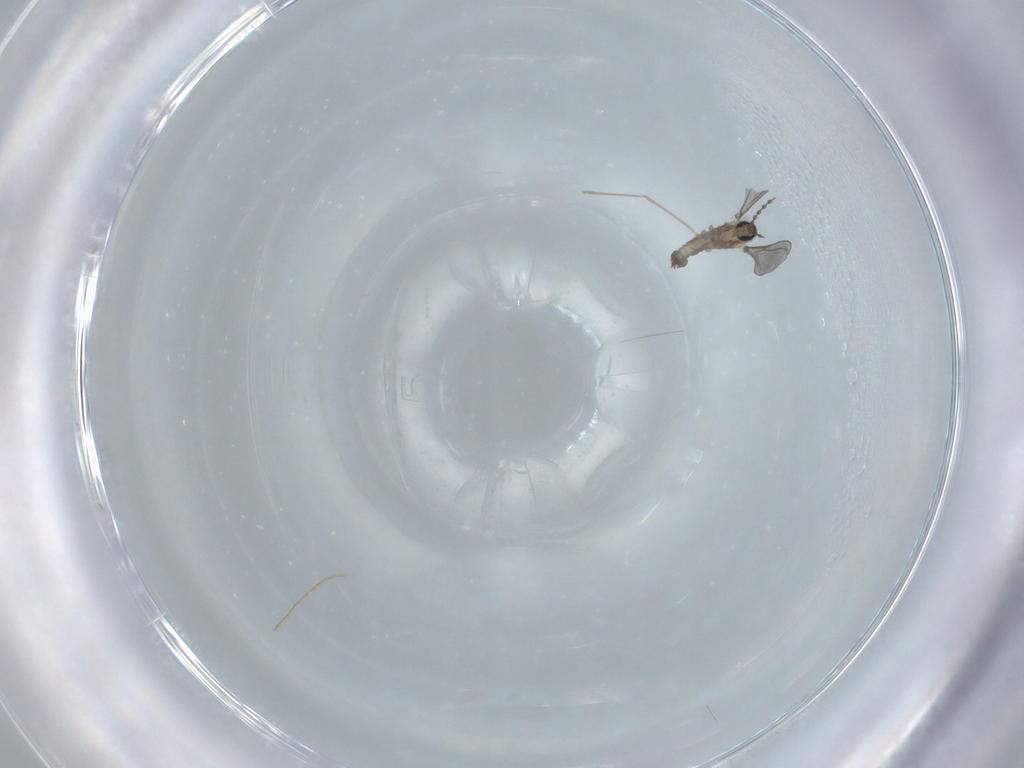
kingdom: Animalia
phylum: Arthropoda
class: Insecta
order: Diptera
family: Cecidomyiidae
